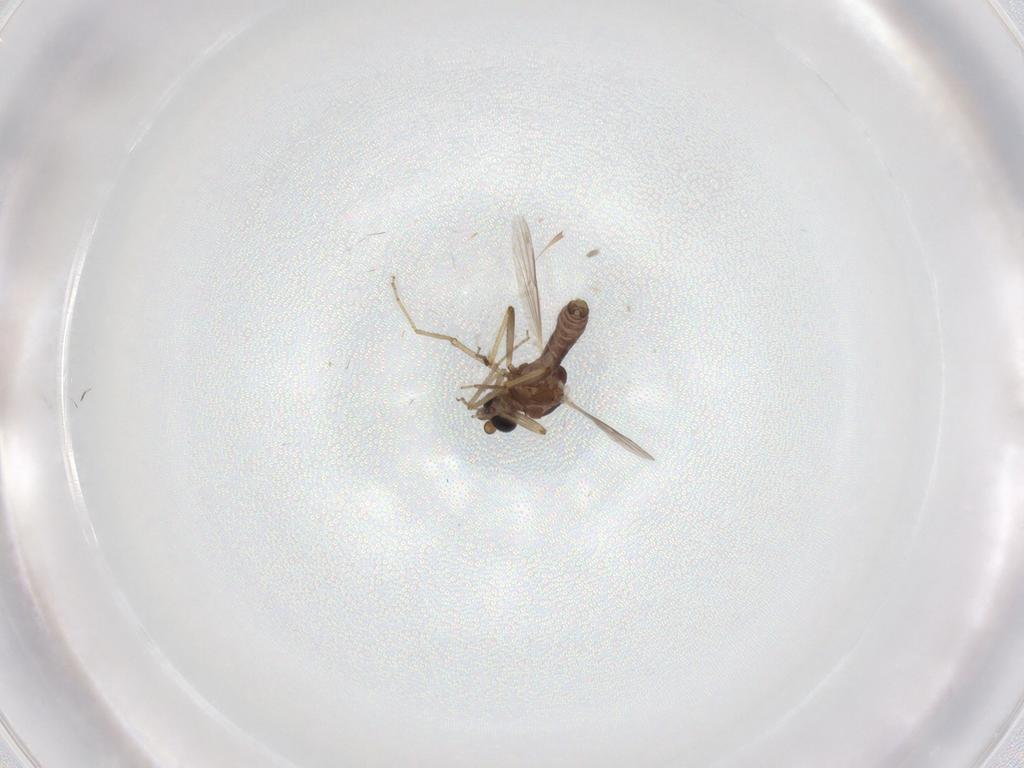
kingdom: Animalia
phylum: Arthropoda
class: Insecta
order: Diptera
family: Ceratopogonidae
